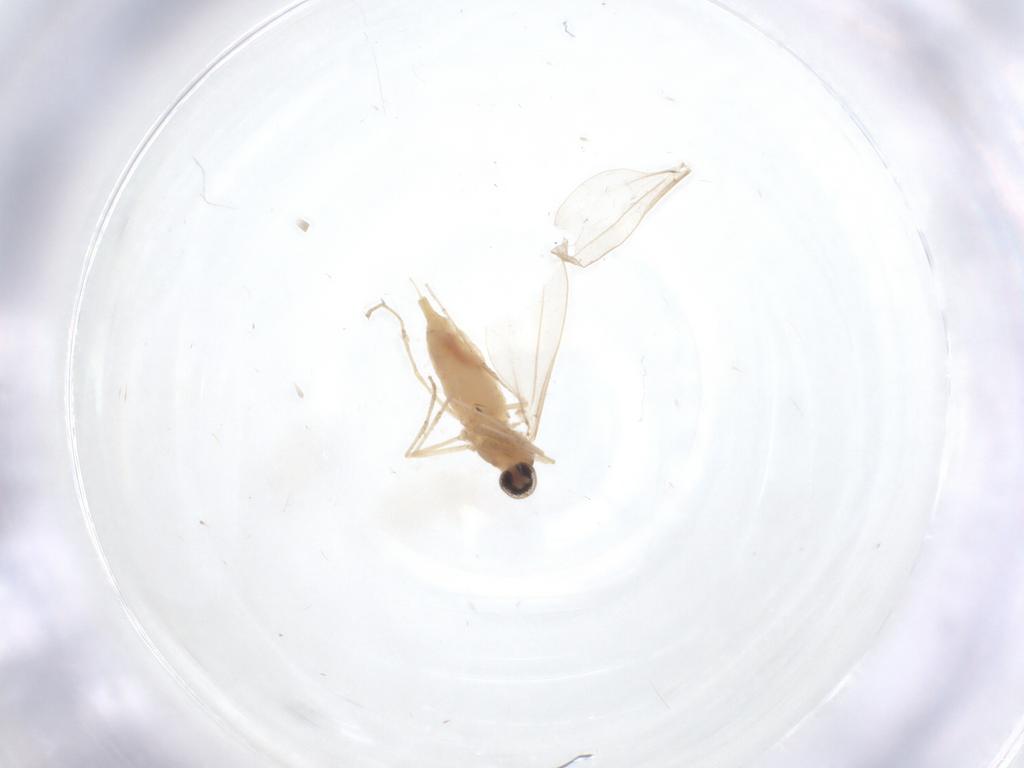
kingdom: Animalia
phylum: Arthropoda
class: Insecta
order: Diptera
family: Cecidomyiidae
